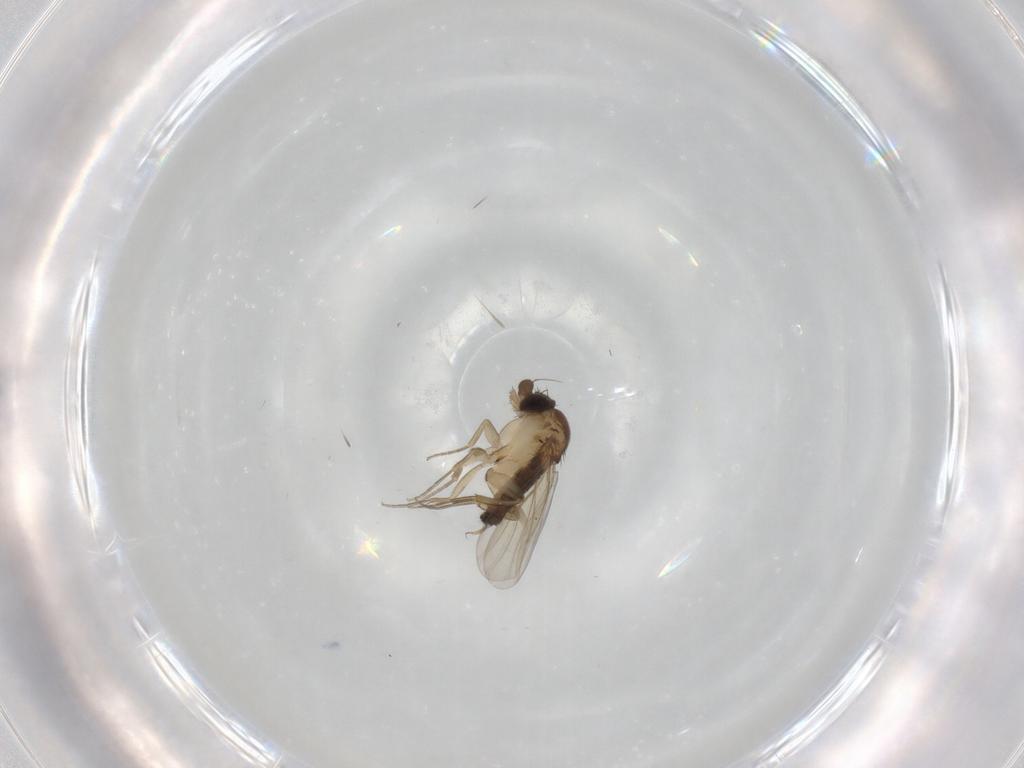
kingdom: Animalia
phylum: Arthropoda
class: Insecta
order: Diptera
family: Phoridae
